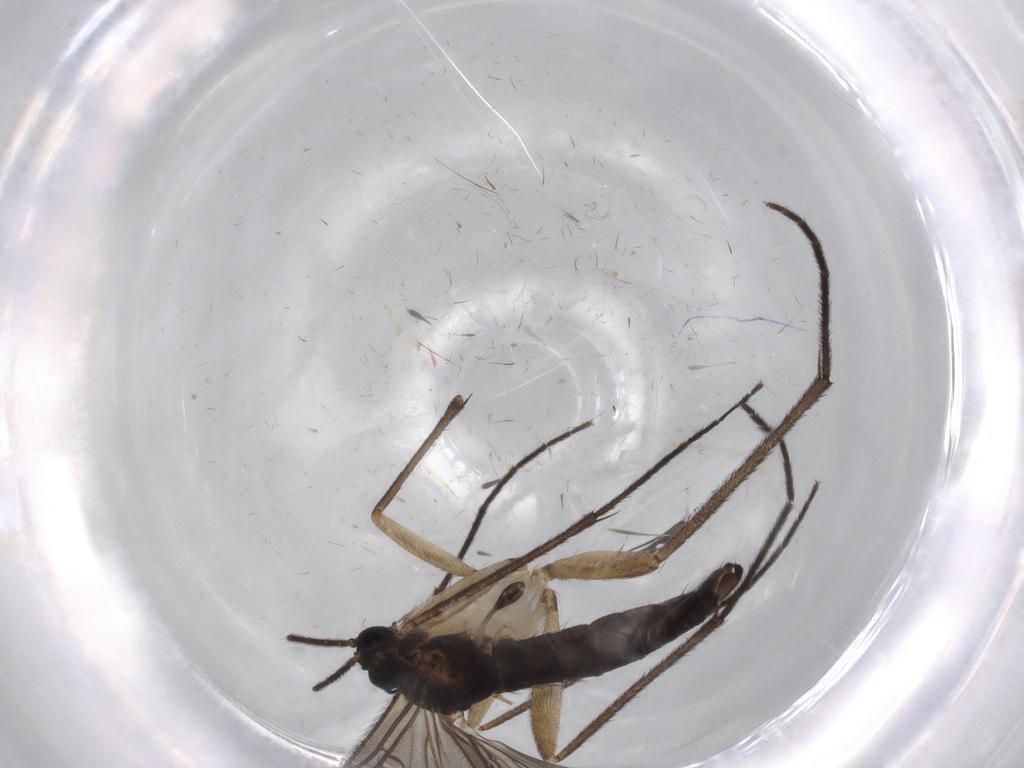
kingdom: Animalia
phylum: Arthropoda
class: Insecta
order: Diptera
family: Sciaridae
